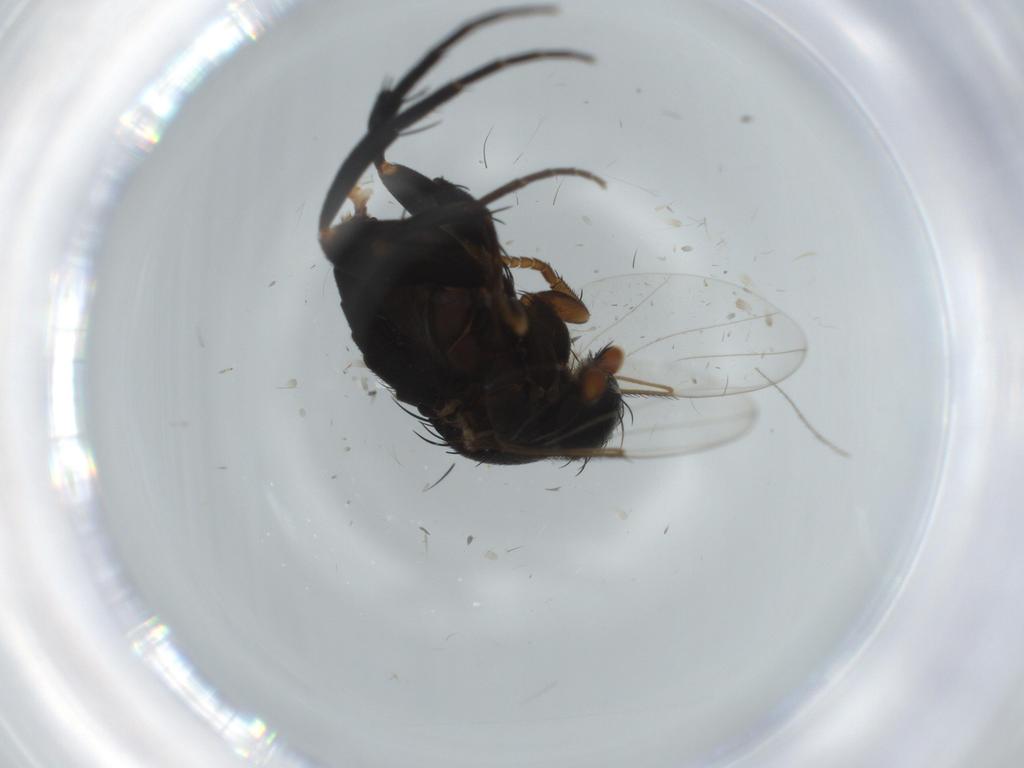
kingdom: Animalia
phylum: Arthropoda
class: Insecta
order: Diptera
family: Phoridae
